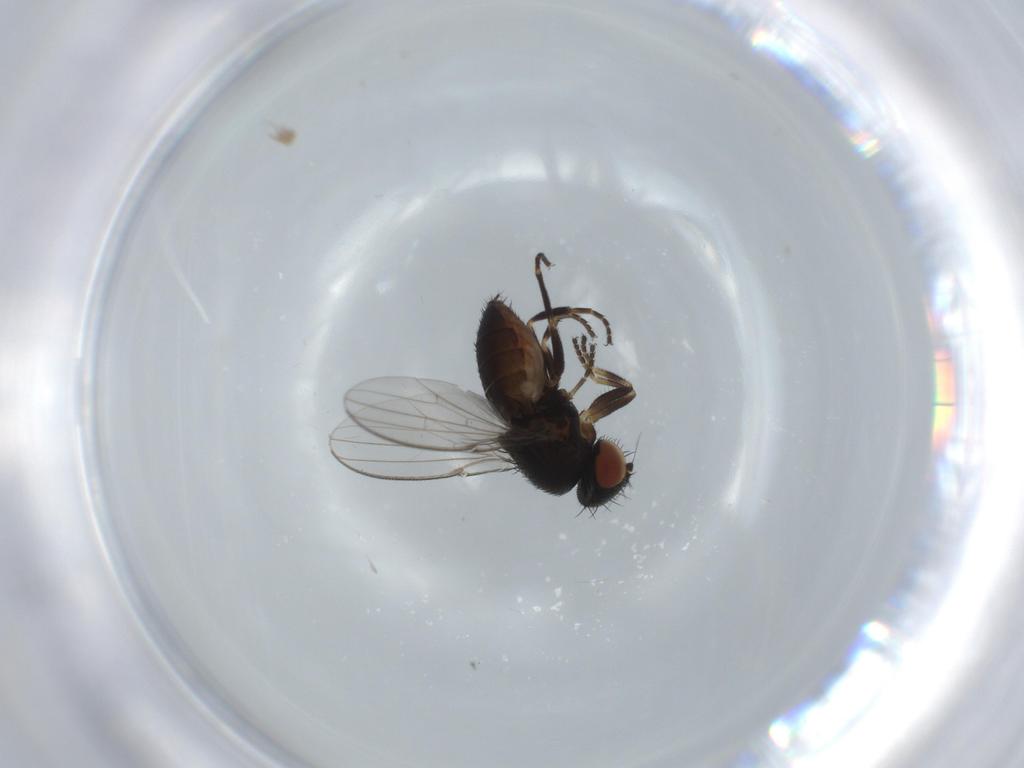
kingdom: Animalia
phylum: Arthropoda
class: Insecta
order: Diptera
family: Milichiidae
